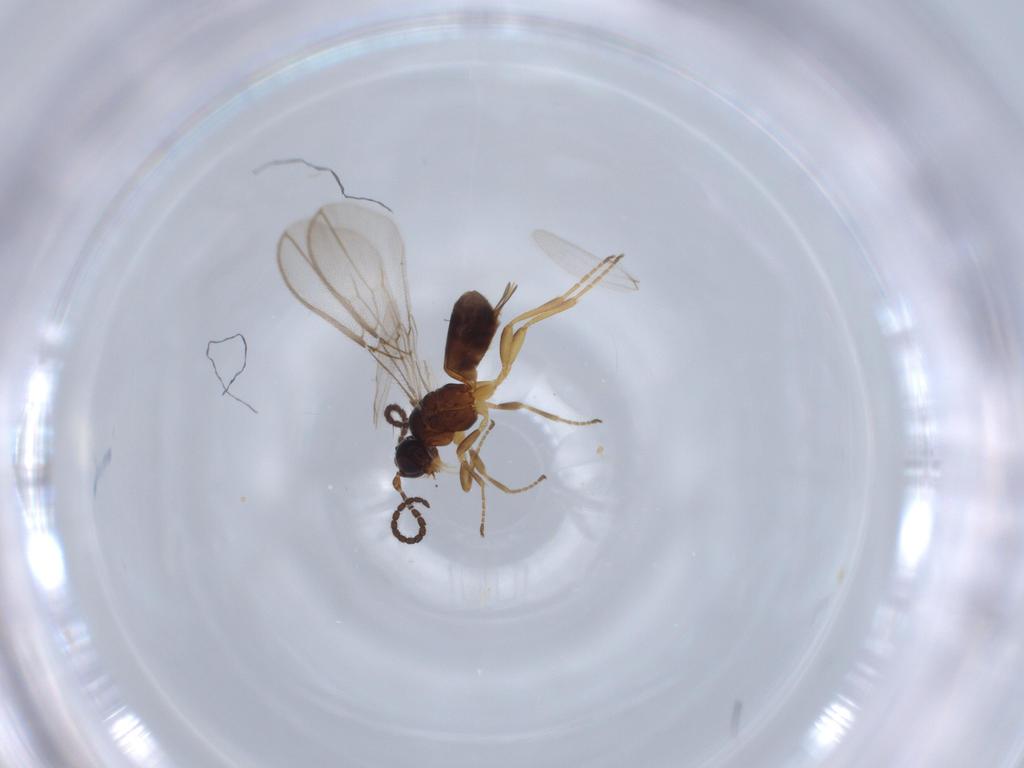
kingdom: Animalia
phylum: Arthropoda
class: Insecta
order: Hymenoptera
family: Braconidae
